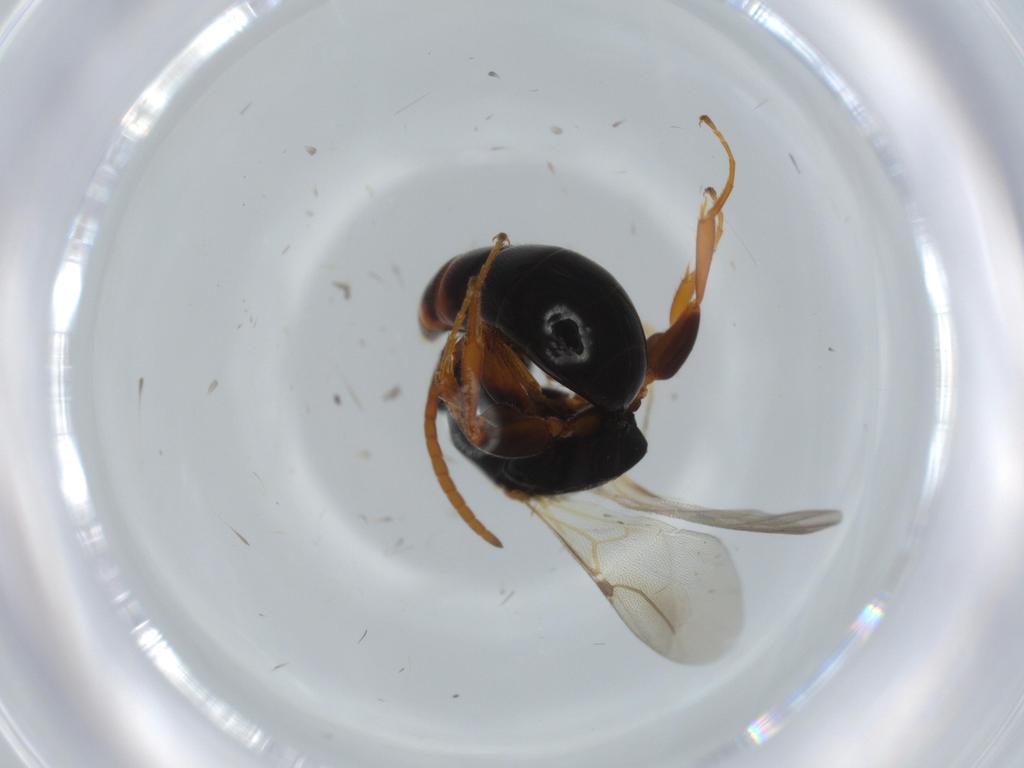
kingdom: Animalia
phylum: Arthropoda
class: Insecta
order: Hymenoptera
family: Bethylidae
